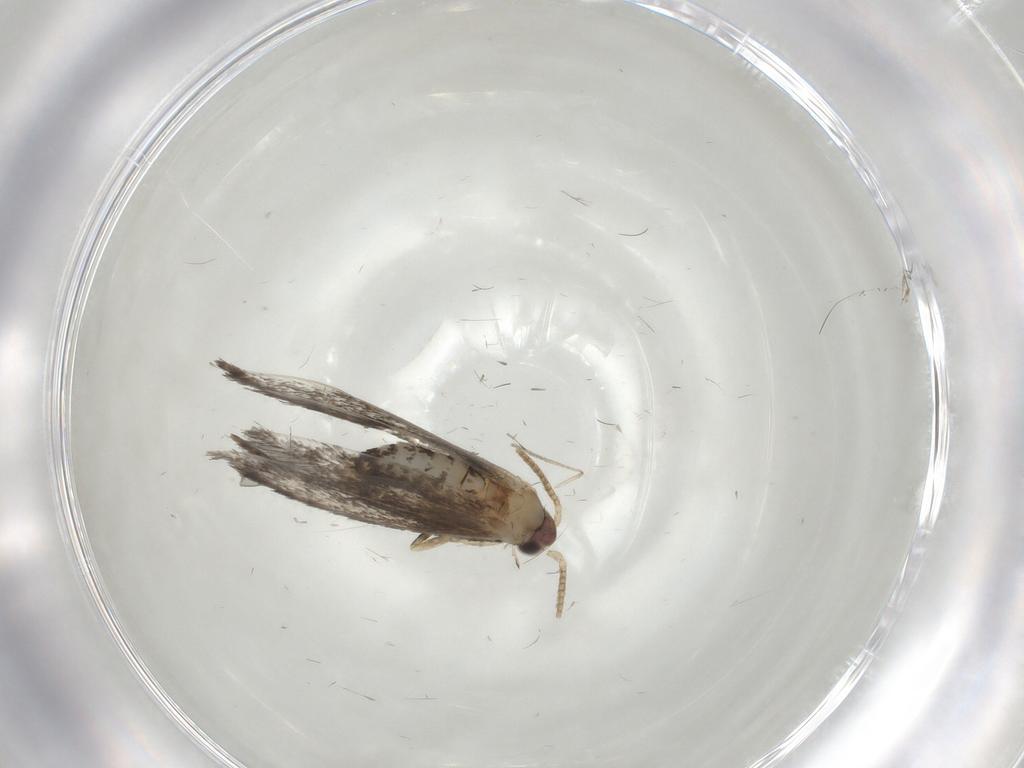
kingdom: Animalia
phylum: Arthropoda
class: Insecta
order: Lepidoptera
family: Tineidae
